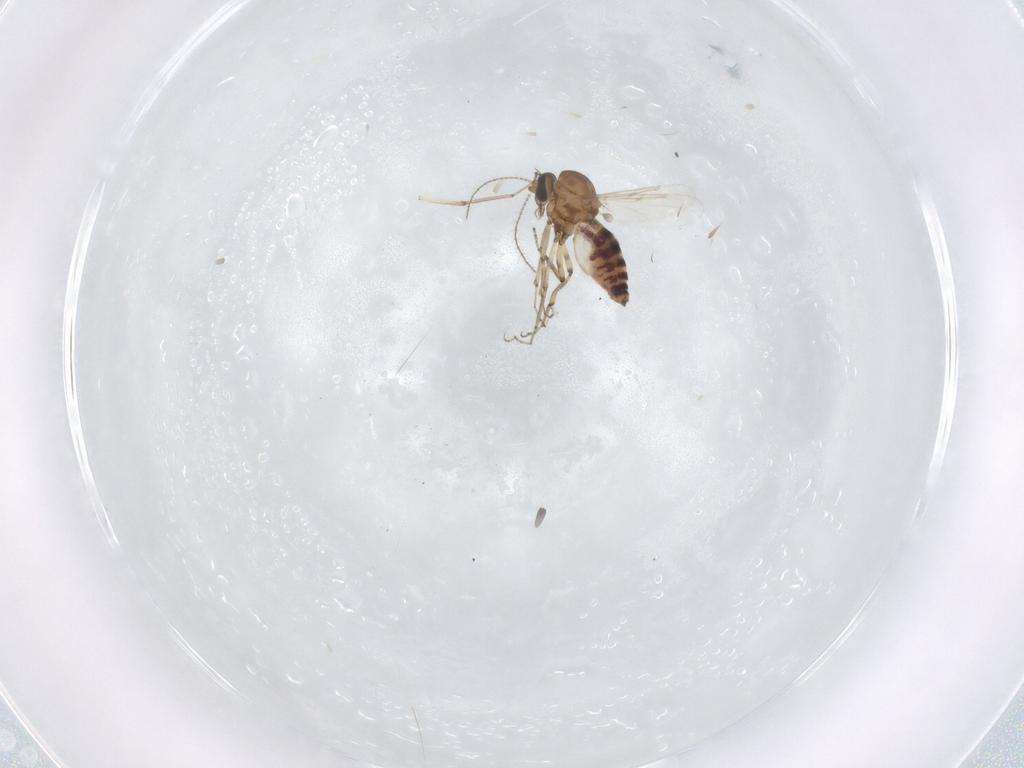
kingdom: Animalia
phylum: Arthropoda
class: Insecta
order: Diptera
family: Ceratopogonidae
